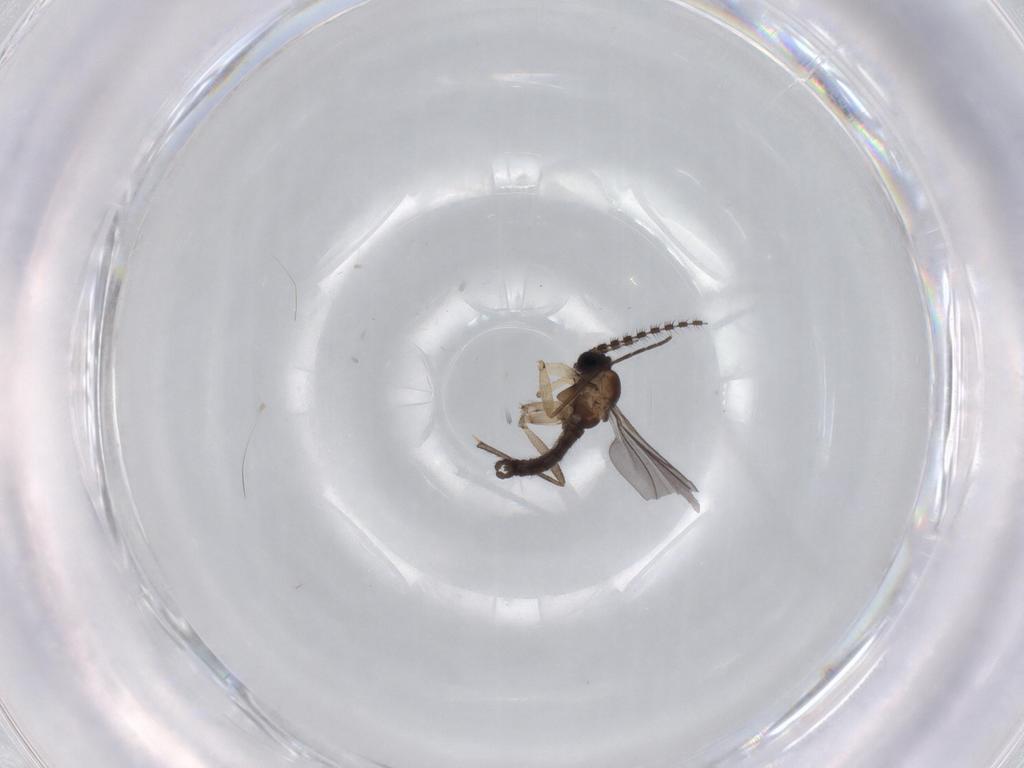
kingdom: Animalia
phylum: Arthropoda
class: Insecta
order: Diptera
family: Sciaridae
